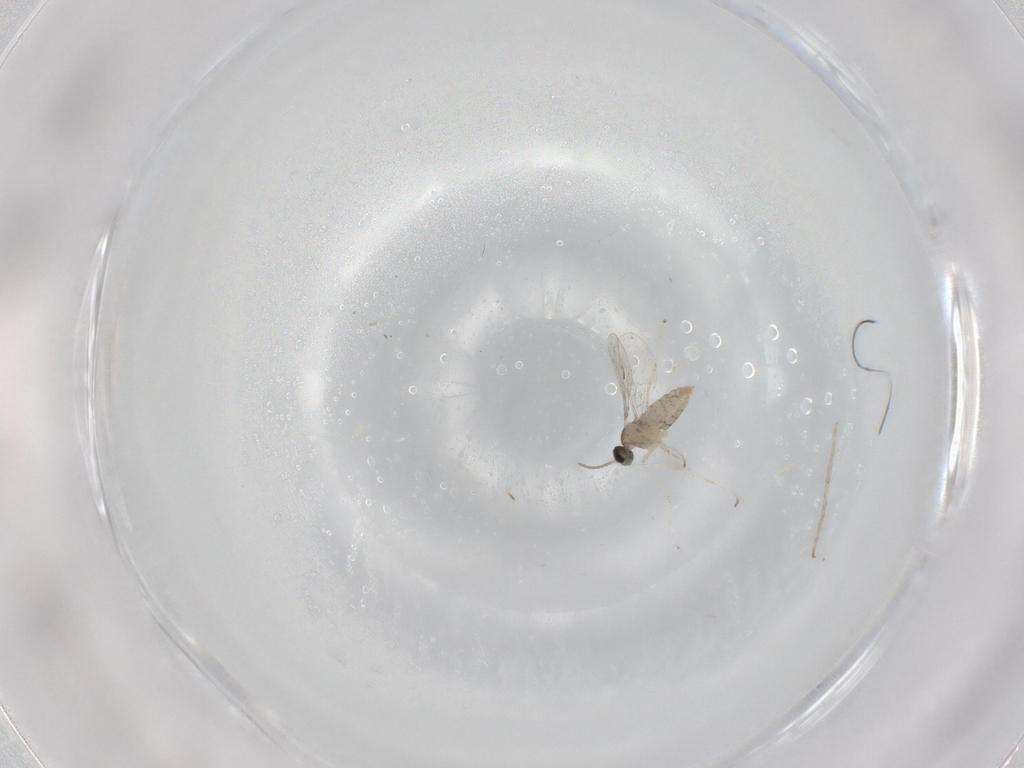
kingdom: Animalia
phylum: Arthropoda
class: Insecta
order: Diptera
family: Cecidomyiidae
